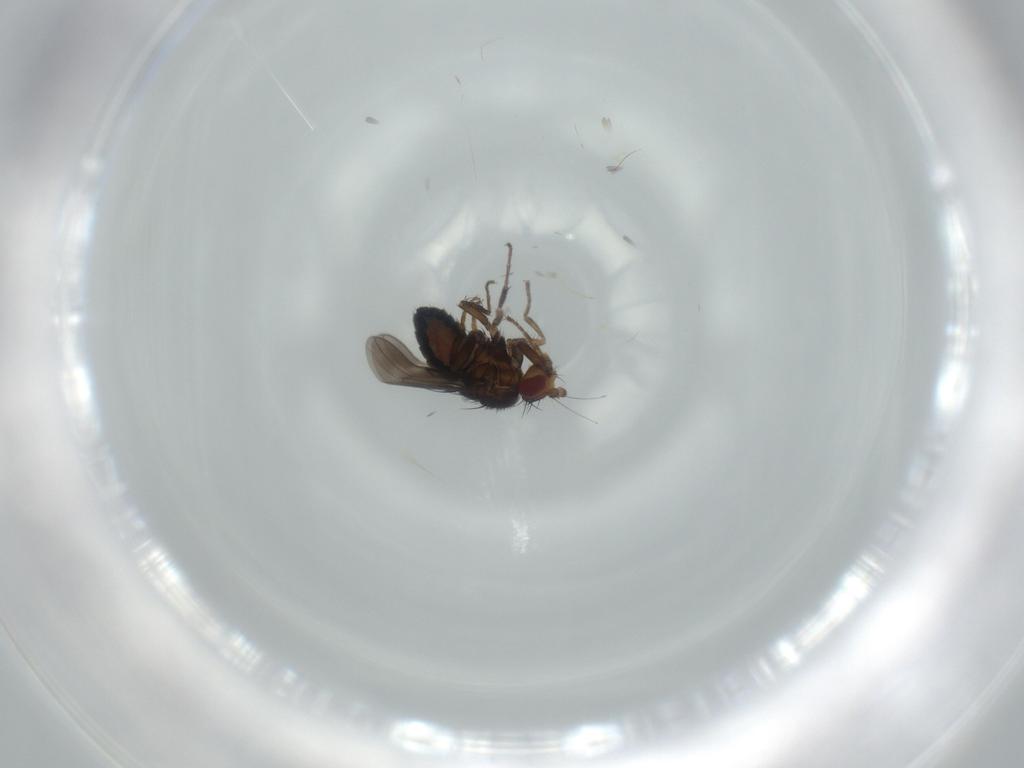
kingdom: Animalia
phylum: Arthropoda
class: Insecta
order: Diptera
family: Sphaeroceridae
